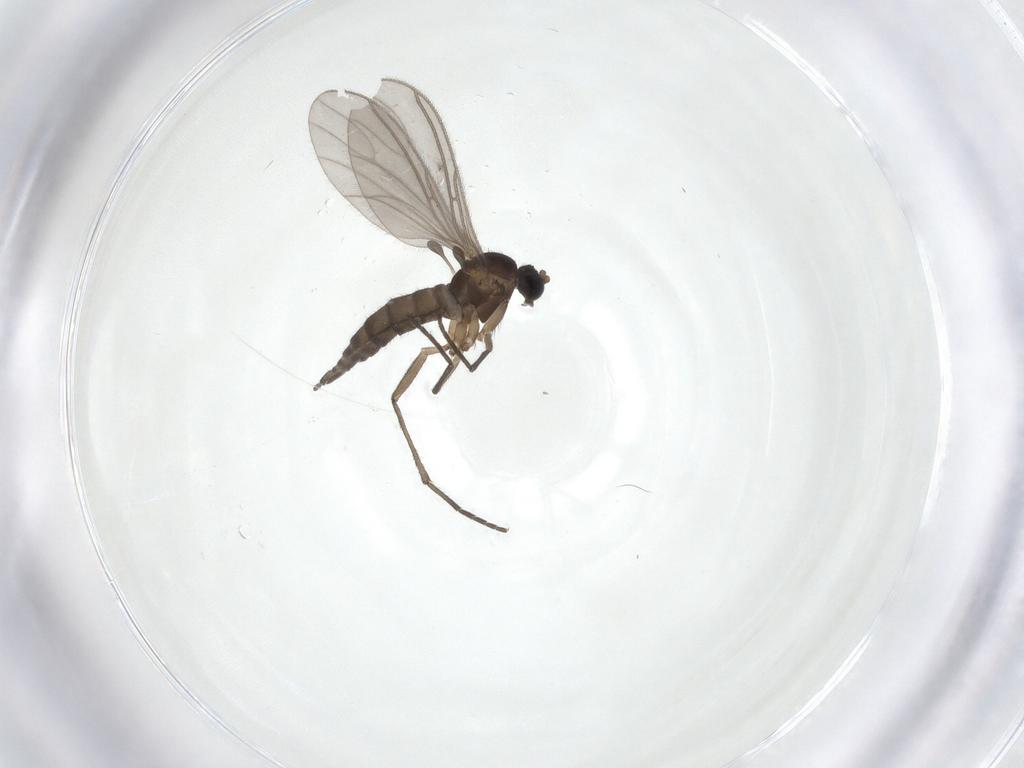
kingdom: Animalia
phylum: Arthropoda
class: Insecta
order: Diptera
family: Sciaridae
